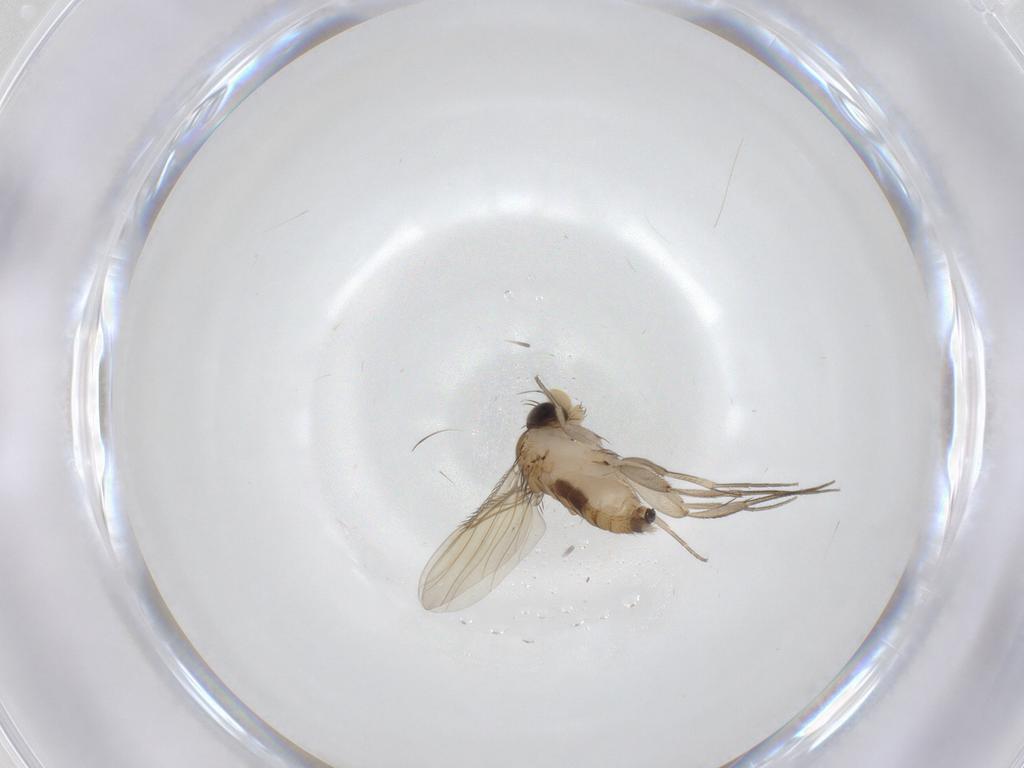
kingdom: Animalia
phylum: Arthropoda
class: Insecta
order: Diptera
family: Phoridae
